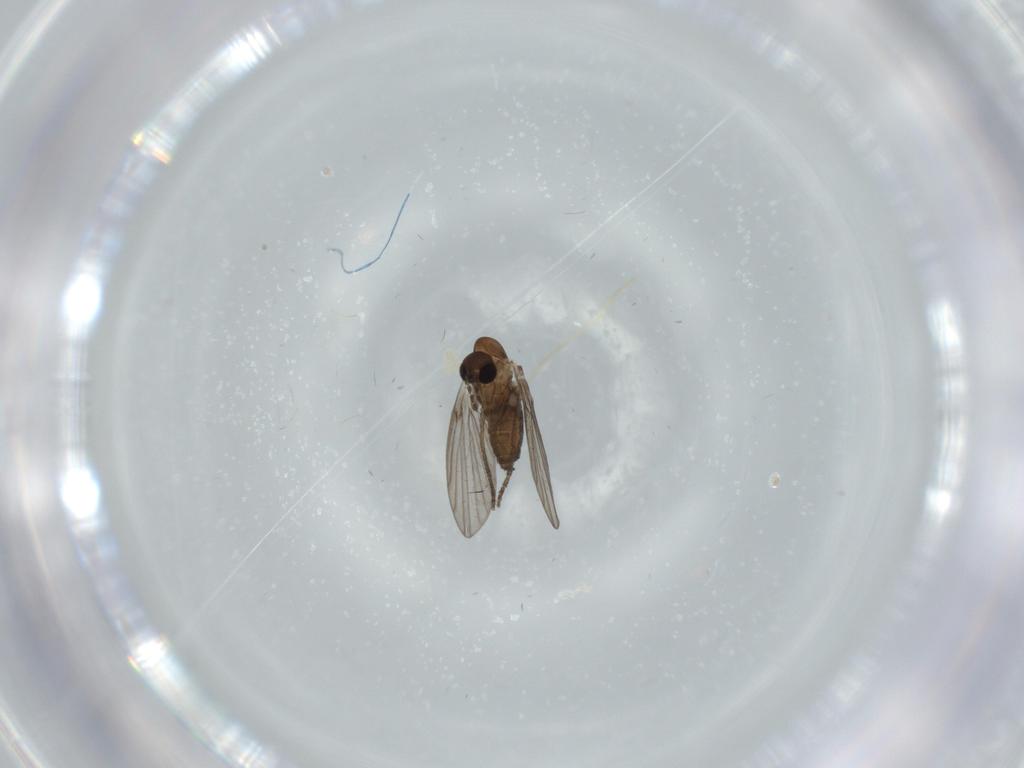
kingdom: Animalia
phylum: Arthropoda
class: Insecta
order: Diptera
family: Psychodidae
